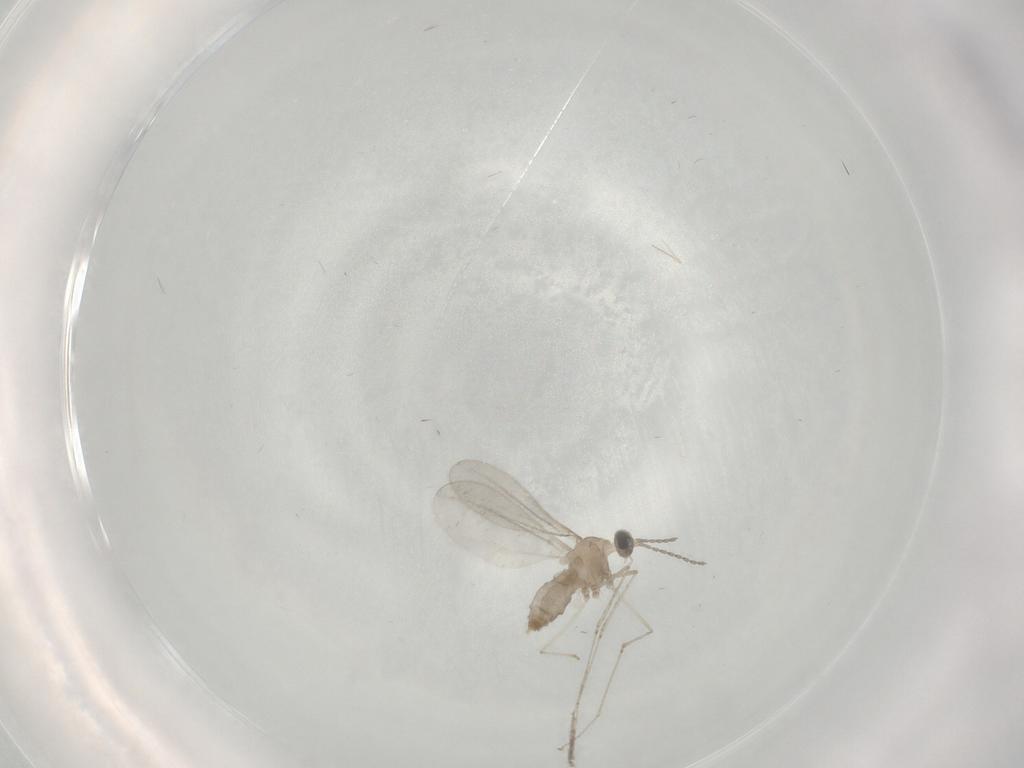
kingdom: Animalia
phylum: Arthropoda
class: Insecta
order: Diptera
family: Cecidomyiidae
